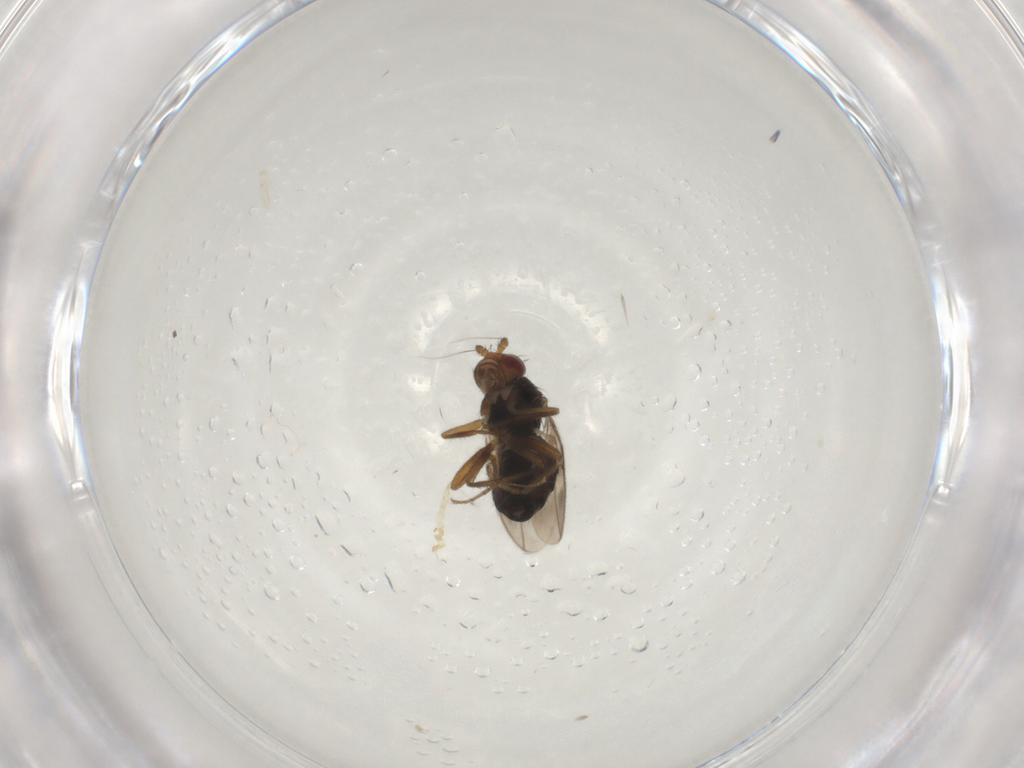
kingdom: Animalia
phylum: Arthropoda
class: Insecta
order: Diptera
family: Sphaeroceridae
